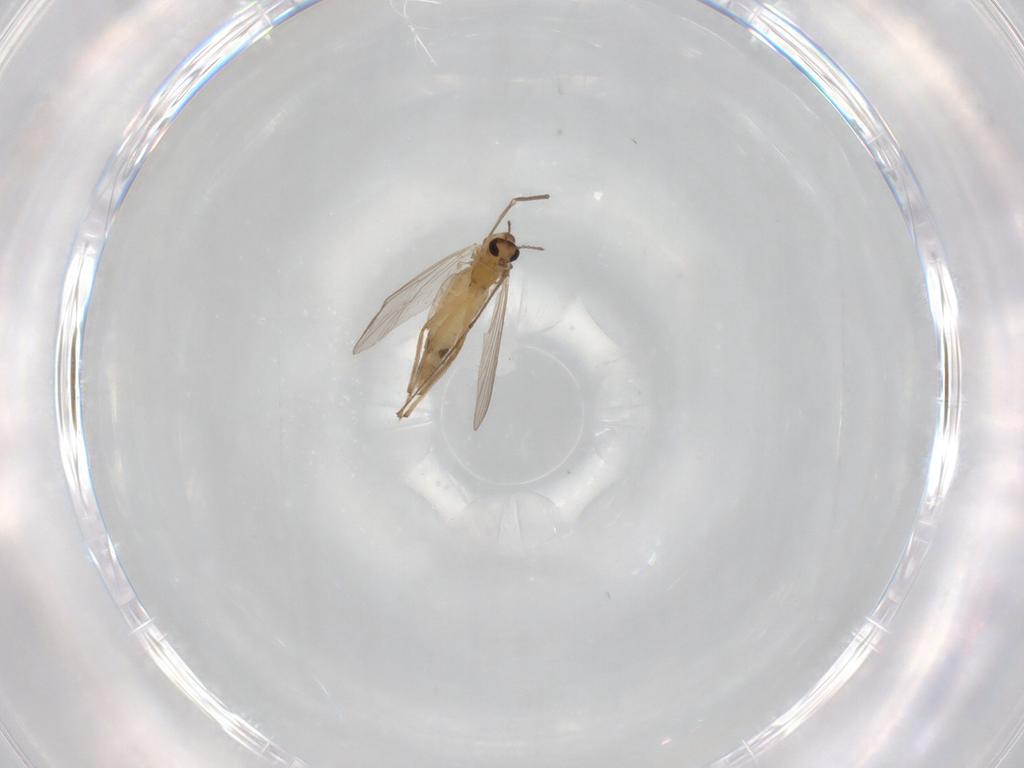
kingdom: Animalia
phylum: Arthropoda
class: Insecta
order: Diptera
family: Chironomidae
